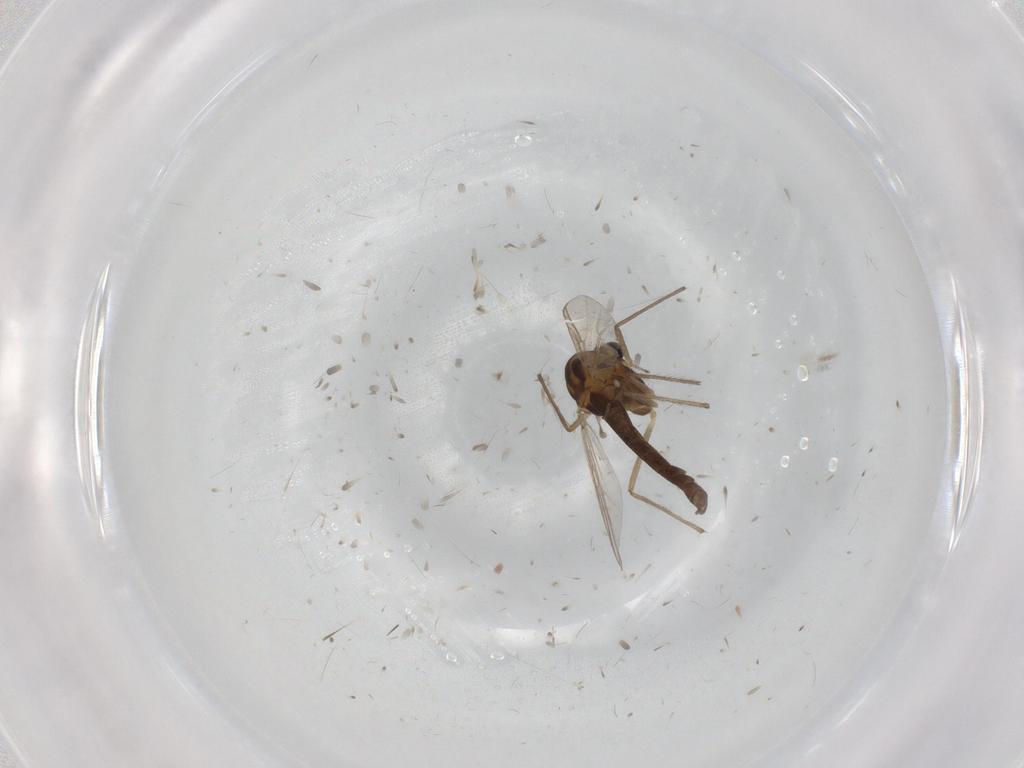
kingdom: Animalia
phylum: Arthropoda
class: Insecta
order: Diptera
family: Chironomidae
